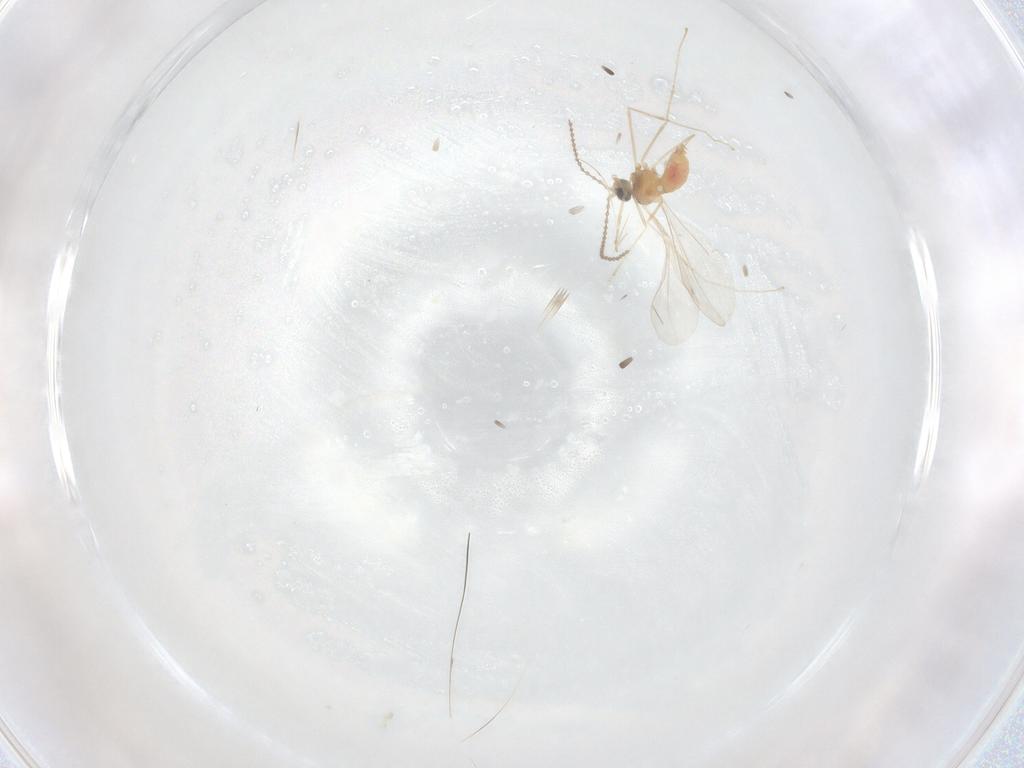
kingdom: Animalia
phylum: Arthropoda
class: Insecta
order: Diptera
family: Cecidomyiidae
